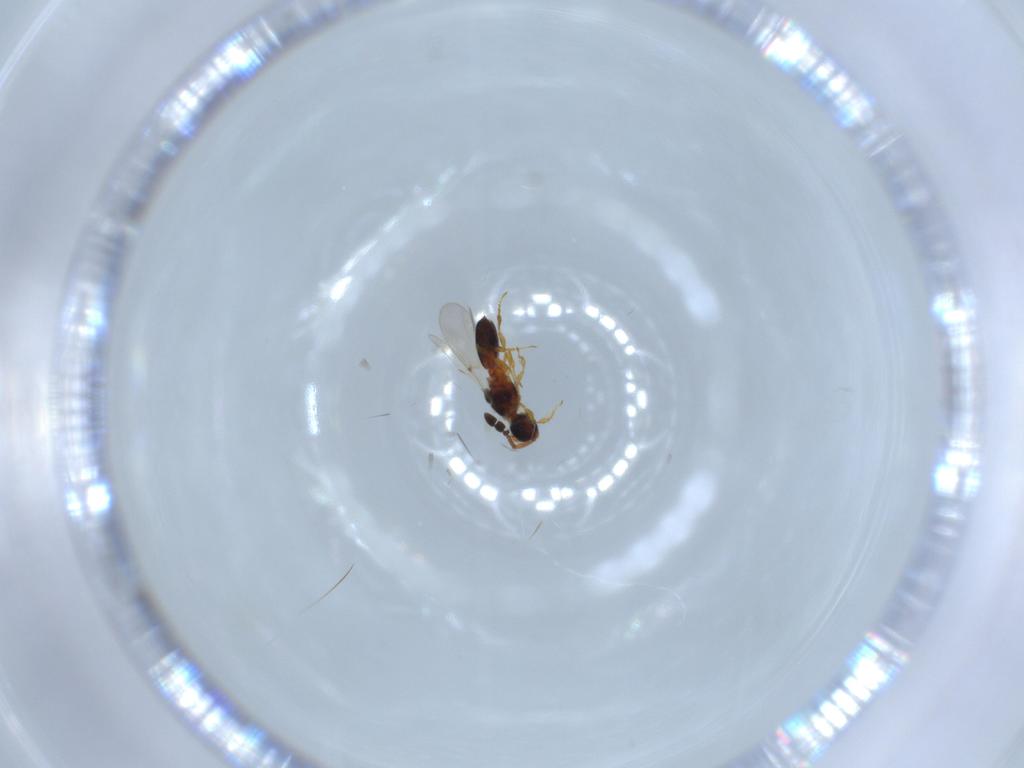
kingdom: Animalia
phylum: Arthropoda
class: Insecta
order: Hymenoptera
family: Diapriidae
